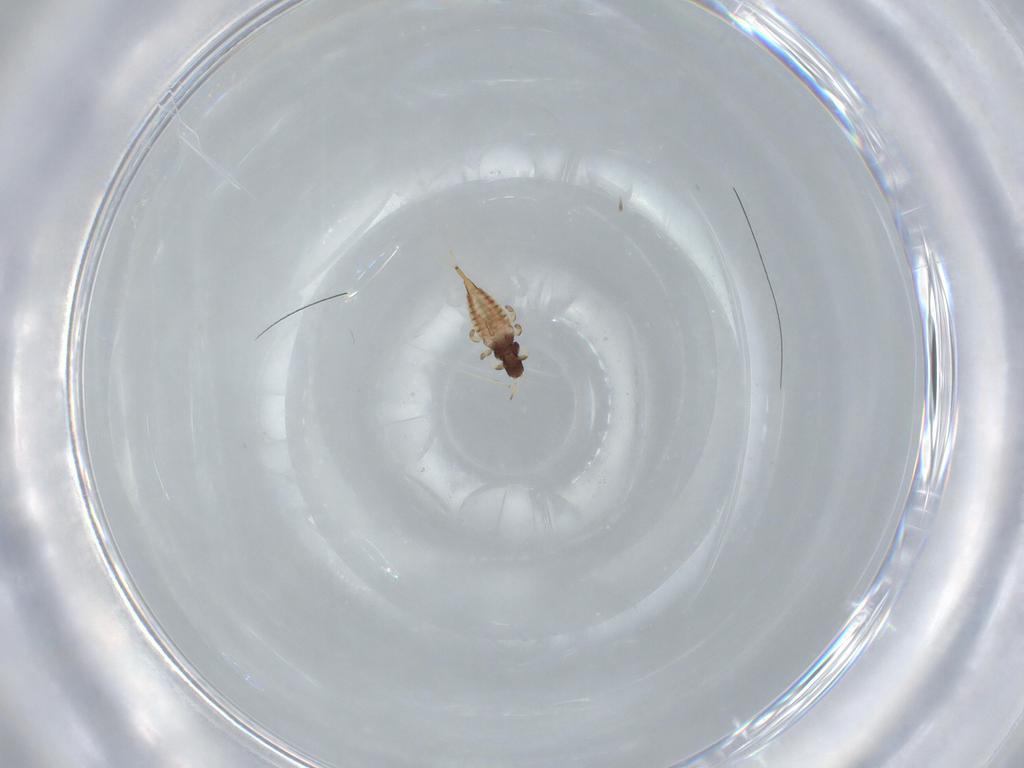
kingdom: Animalia
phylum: Arthropoda
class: Insecta
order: Thysanoptera
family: Phlaeothripidae
